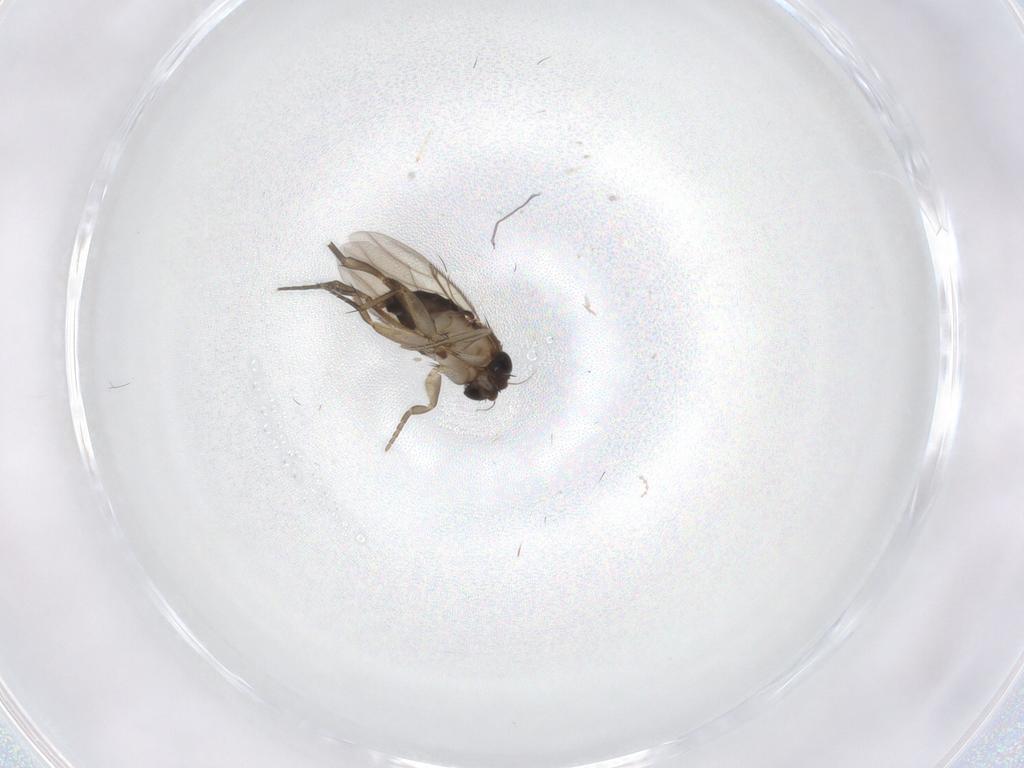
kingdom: Animalia
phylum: Arthropoda
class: Insecta
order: Diptera
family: Phoridae
